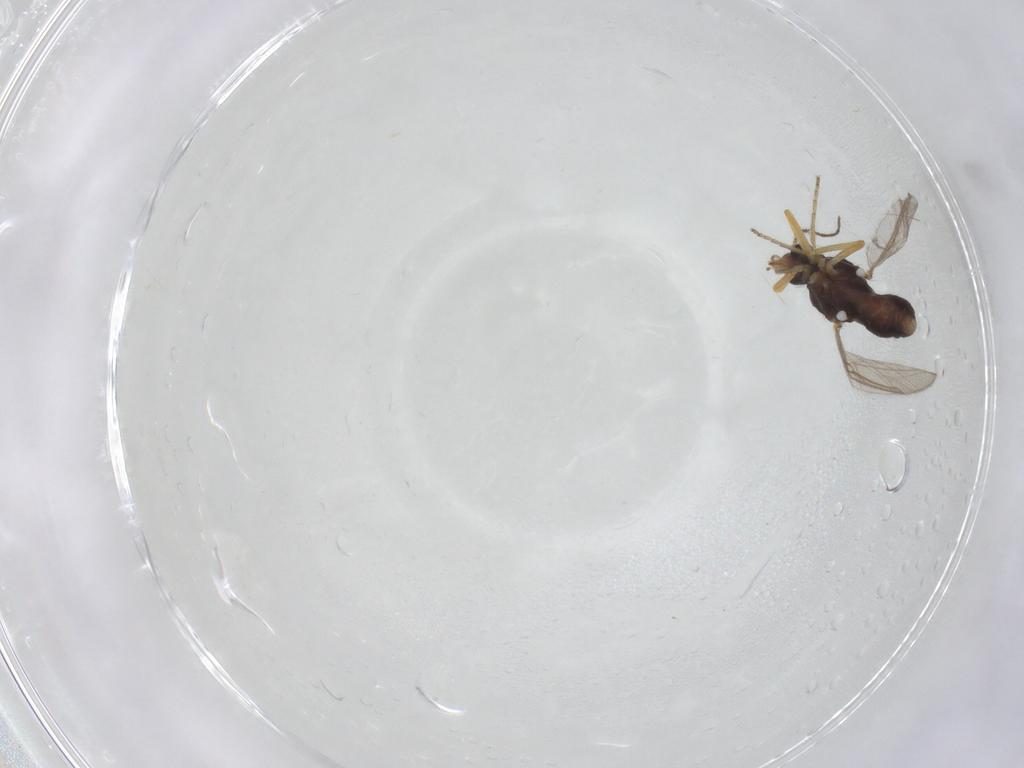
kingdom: Animalia
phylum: Arthropoda
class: Insecta
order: Diptera
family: Ceratopogonidae
